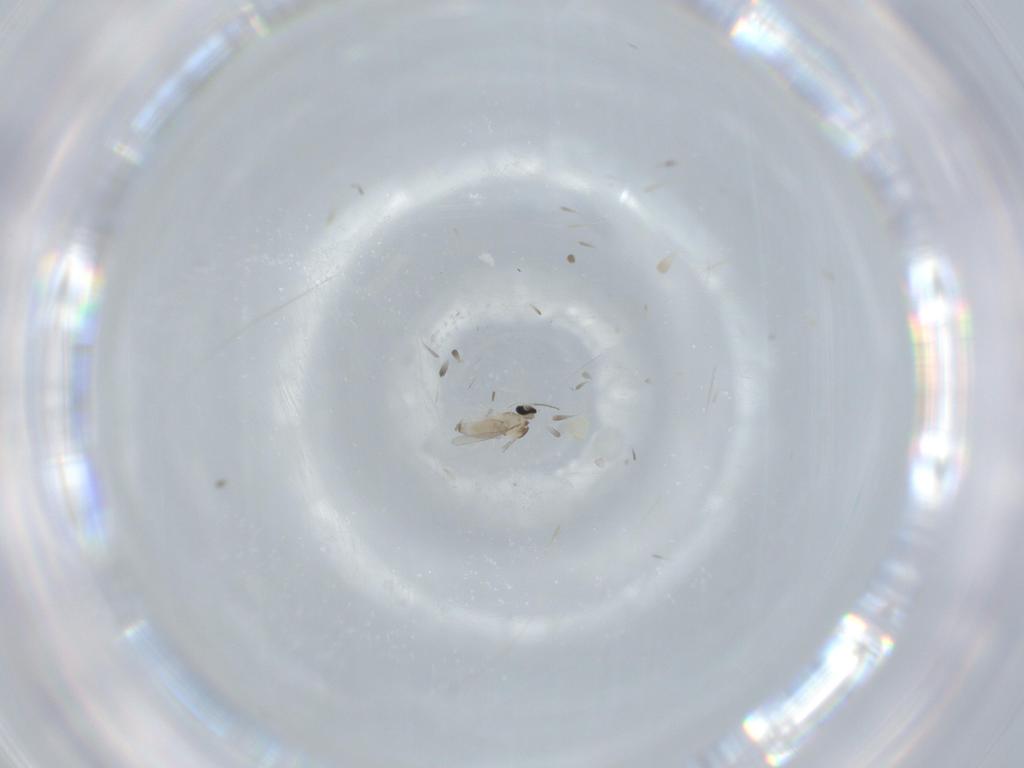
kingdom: Animalia
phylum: Arthropoda
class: Insecta
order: Diptera
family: Cecidomyiidae
